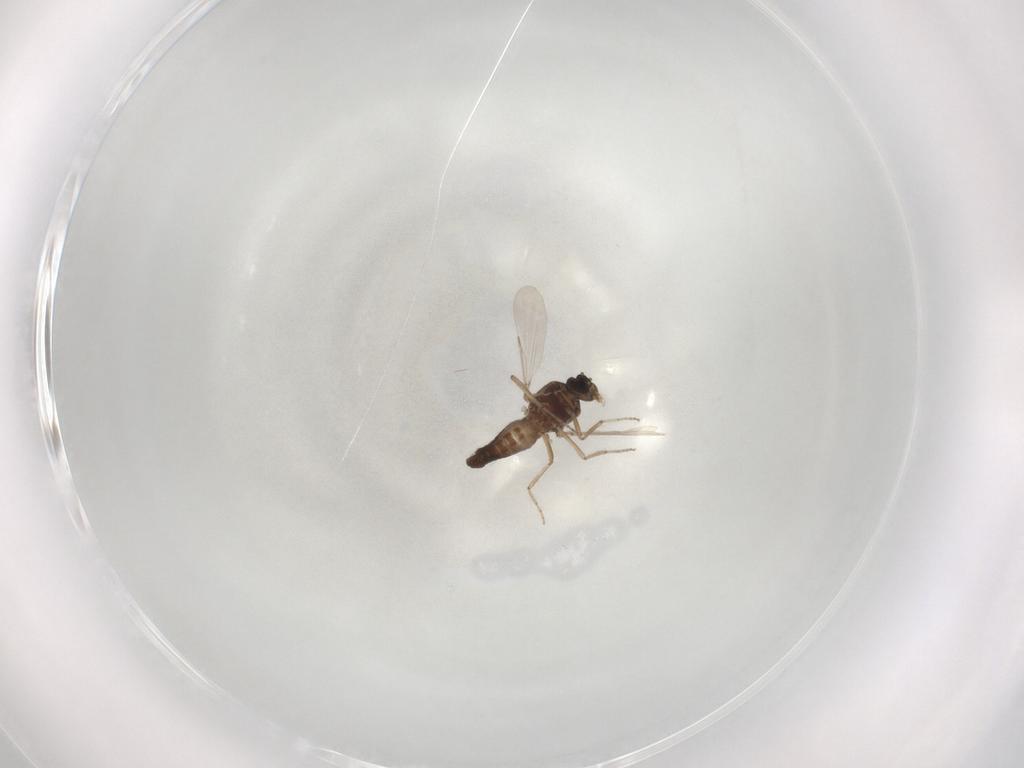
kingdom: Animalia
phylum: Arthropoda
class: Insecta
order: Diptera
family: Ceratopogonidae
